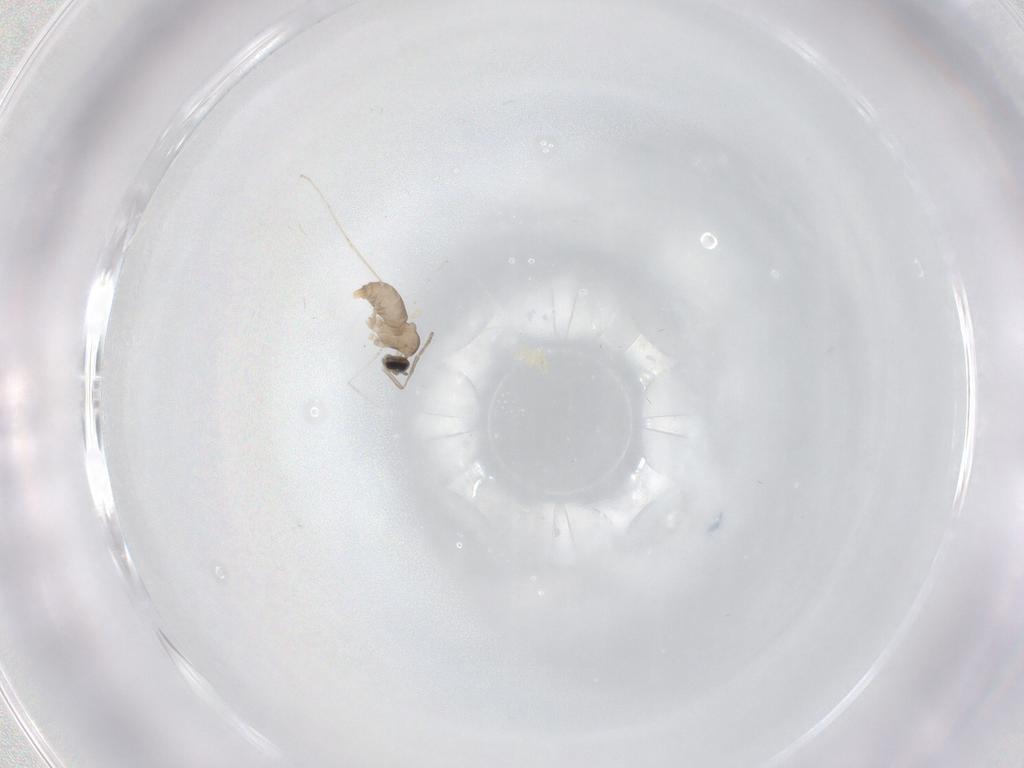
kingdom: Animalia
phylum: Arthropoda
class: Insecta
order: Diptera
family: Cecidomyiidae
